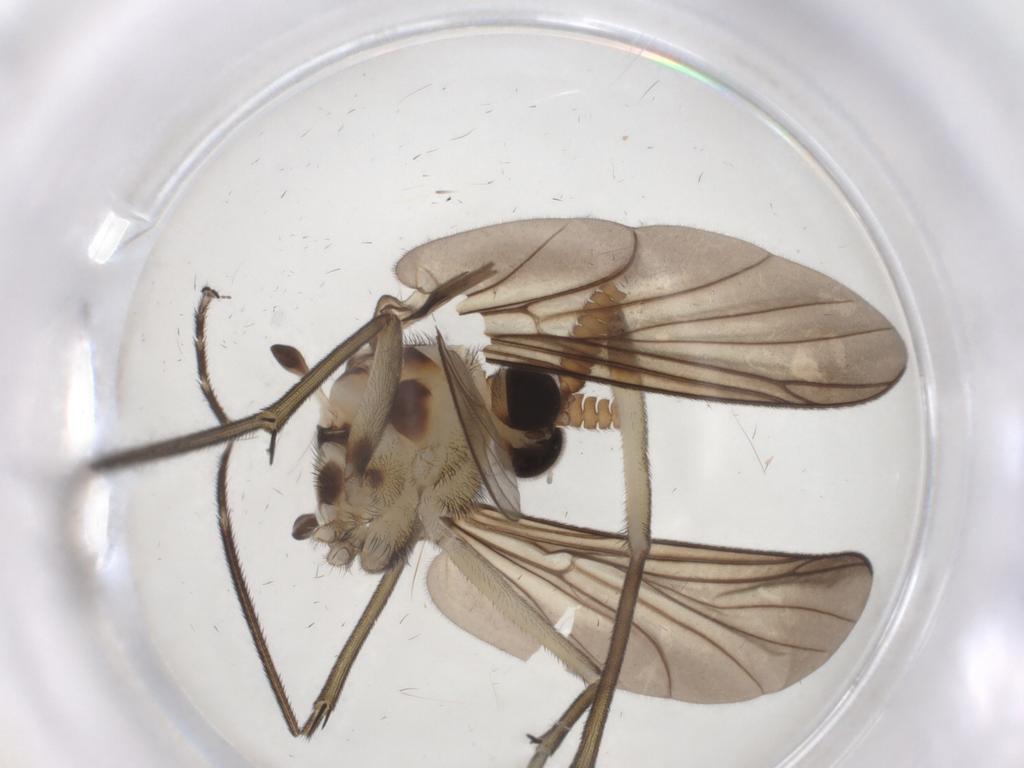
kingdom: Animalia
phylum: Arthropoda
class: Insecta
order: Diptera
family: Keroplatidae
